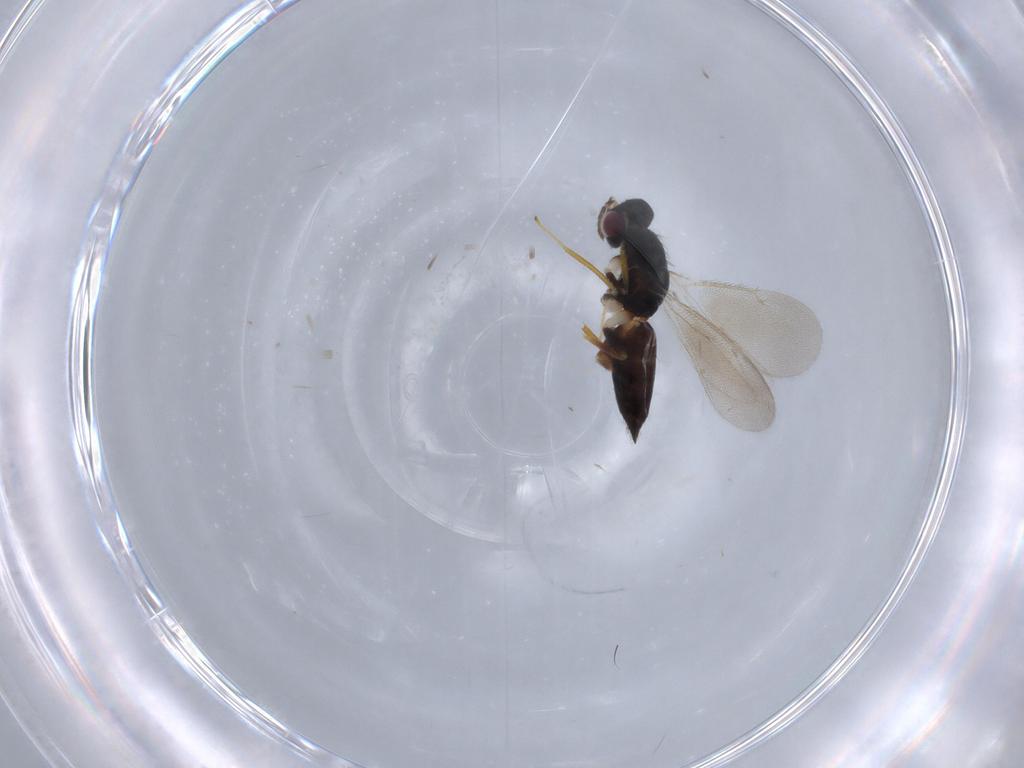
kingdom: Animalia
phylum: Arthropoda
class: Insecta
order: Hymenoptera
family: Eulophidae
